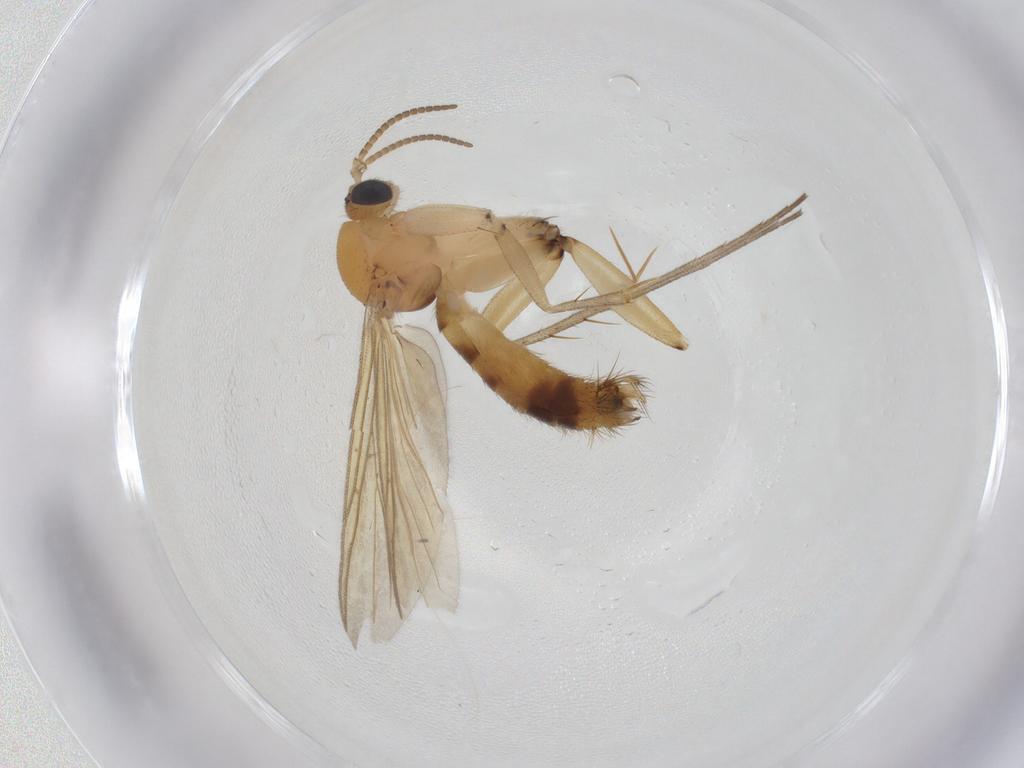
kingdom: Animalia
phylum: Arthropoda
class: Insecta
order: Diptera
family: Mycetophilidae
